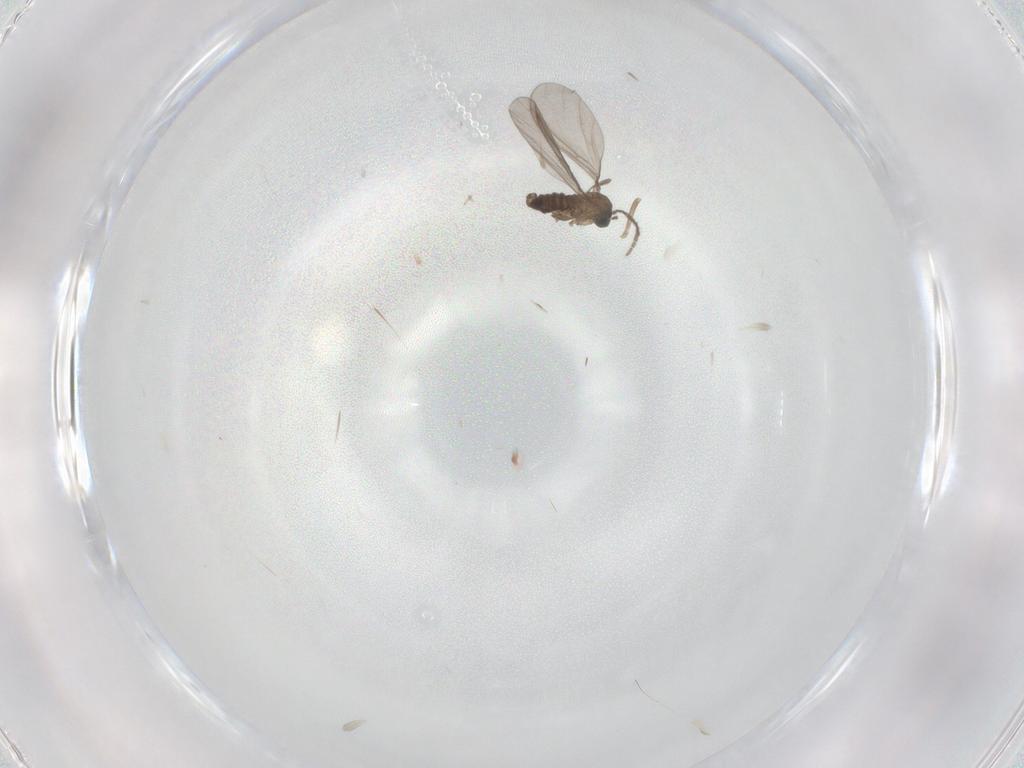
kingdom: Animalia
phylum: Arthropoda
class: Insecta
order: Diptera
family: Sciaridae
